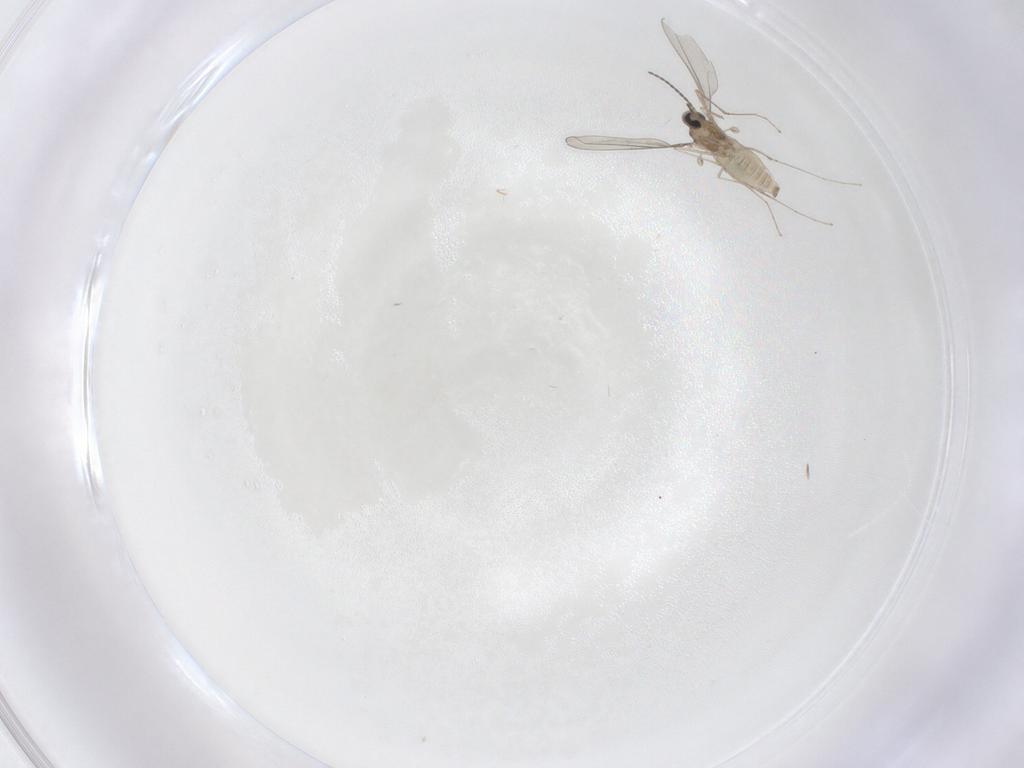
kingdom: Animalia
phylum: Arthropoda
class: Insecta
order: Diptera
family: Cecidomyiidae
